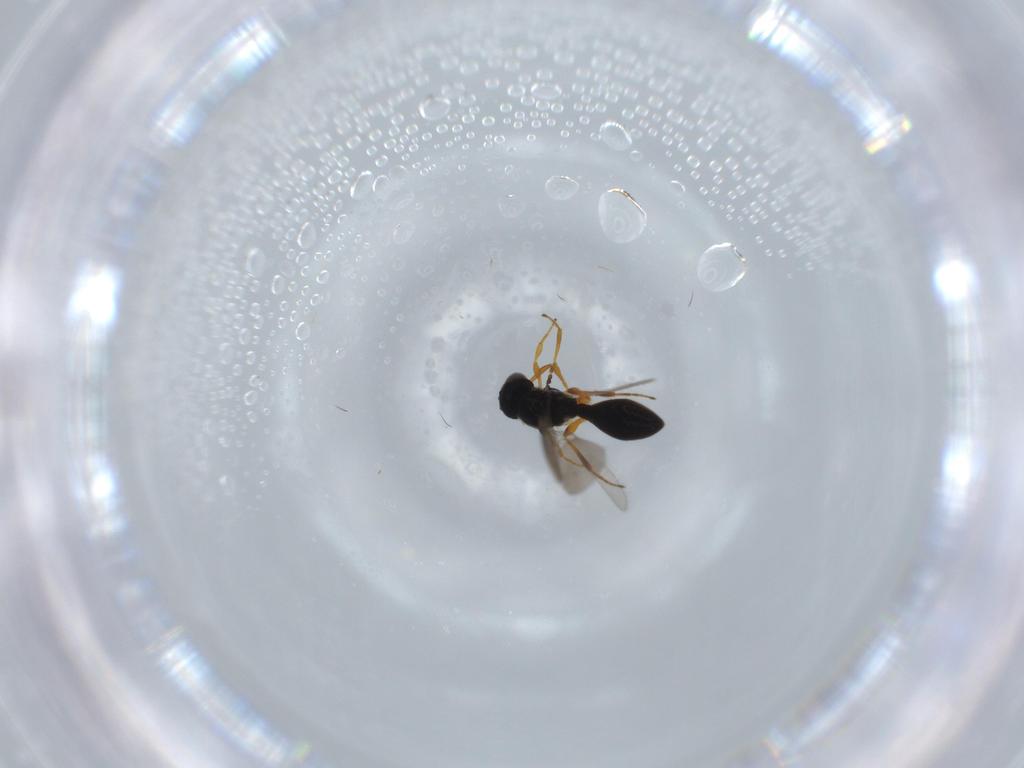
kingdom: Animalia
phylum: Arthropoda
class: Insecta
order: Hymenoptera
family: Platygastridae
